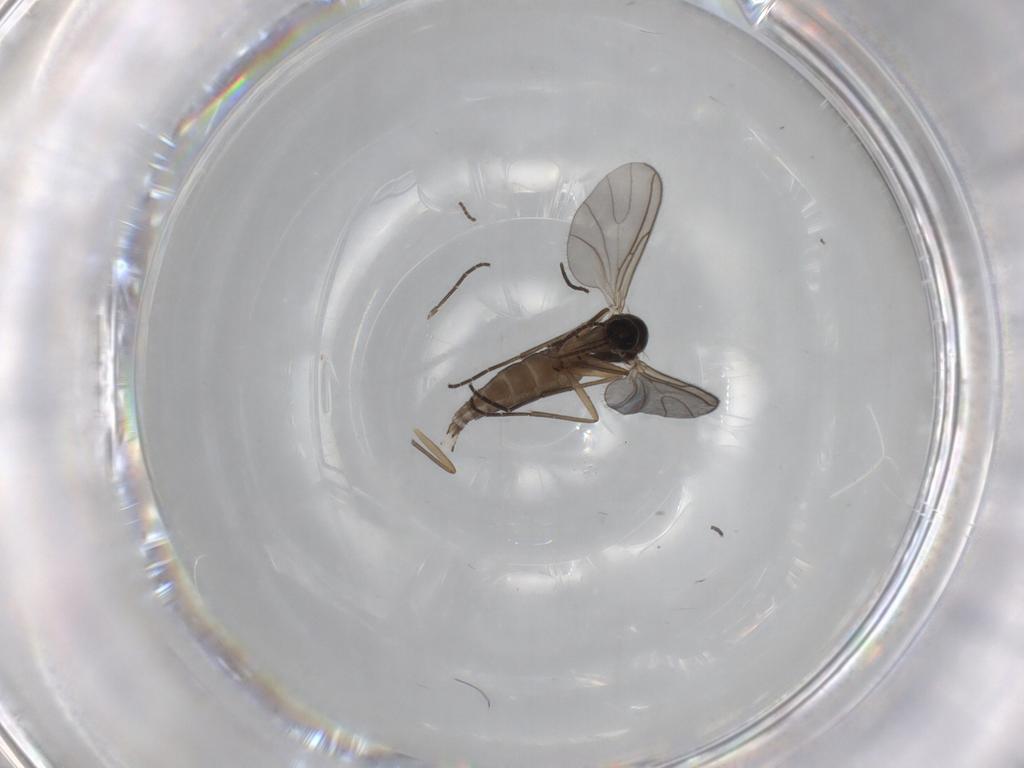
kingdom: Animalia
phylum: Arthropoda
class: Insecta
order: Diptera
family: Sciaridae
